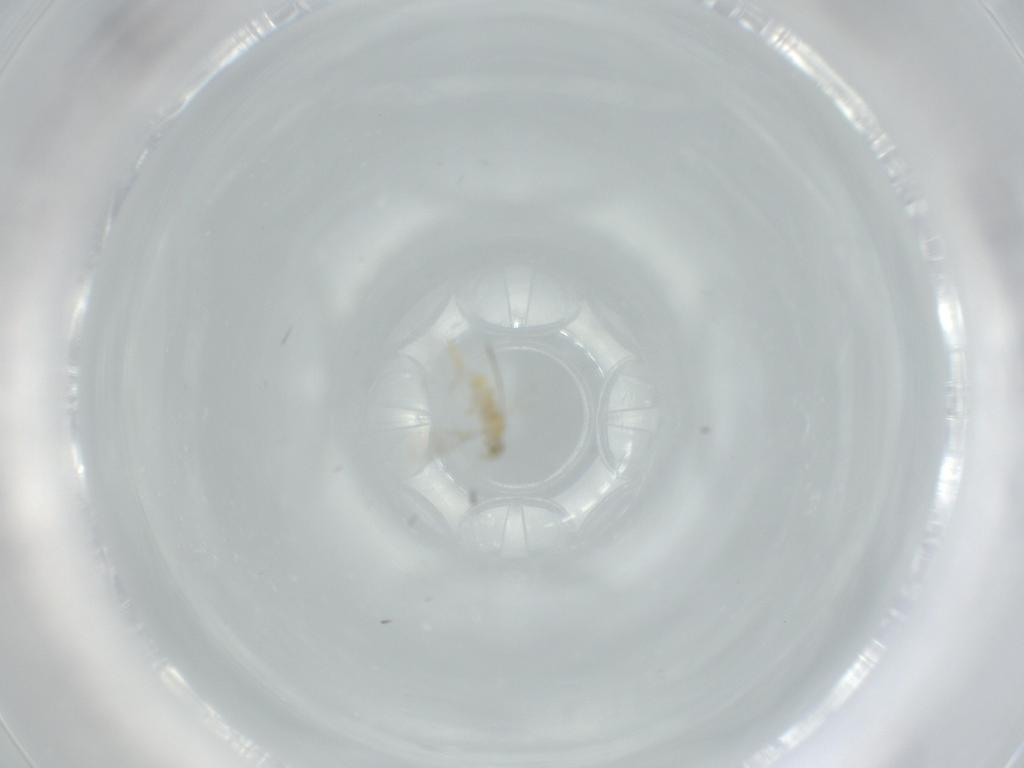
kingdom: Animalia
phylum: Arthropoda
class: Insecta
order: Hymenoptera
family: Aphelinidae
